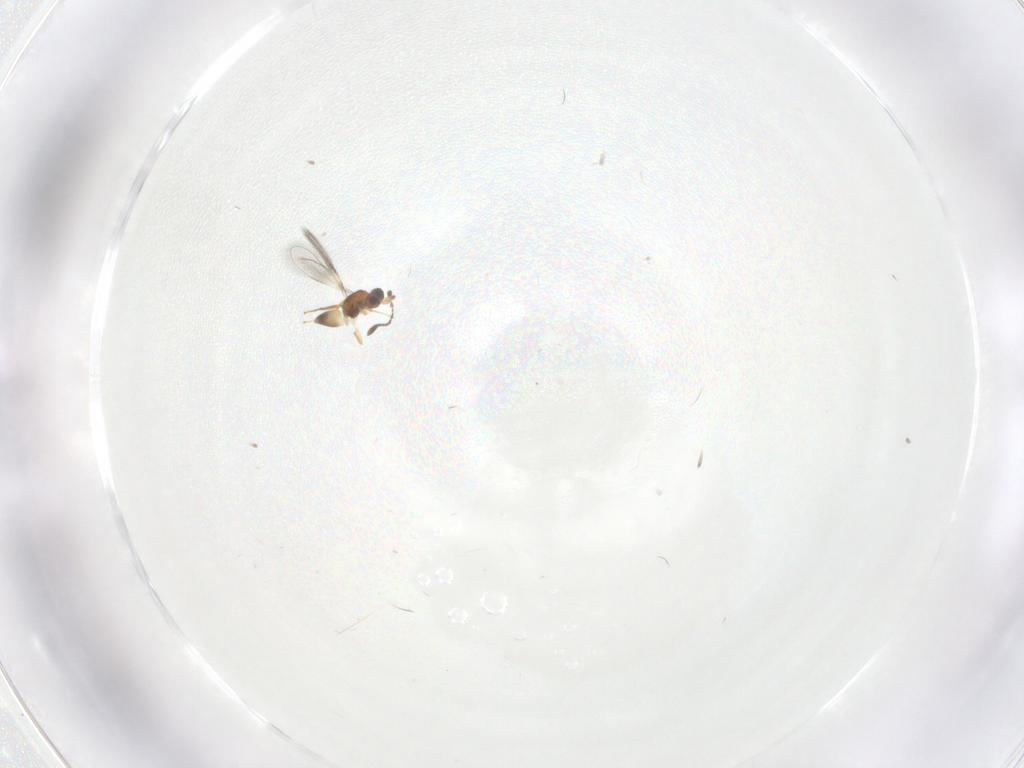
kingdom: Animalia
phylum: Arthropoda
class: Insecta
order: Hymenoptera
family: Mymaridae
